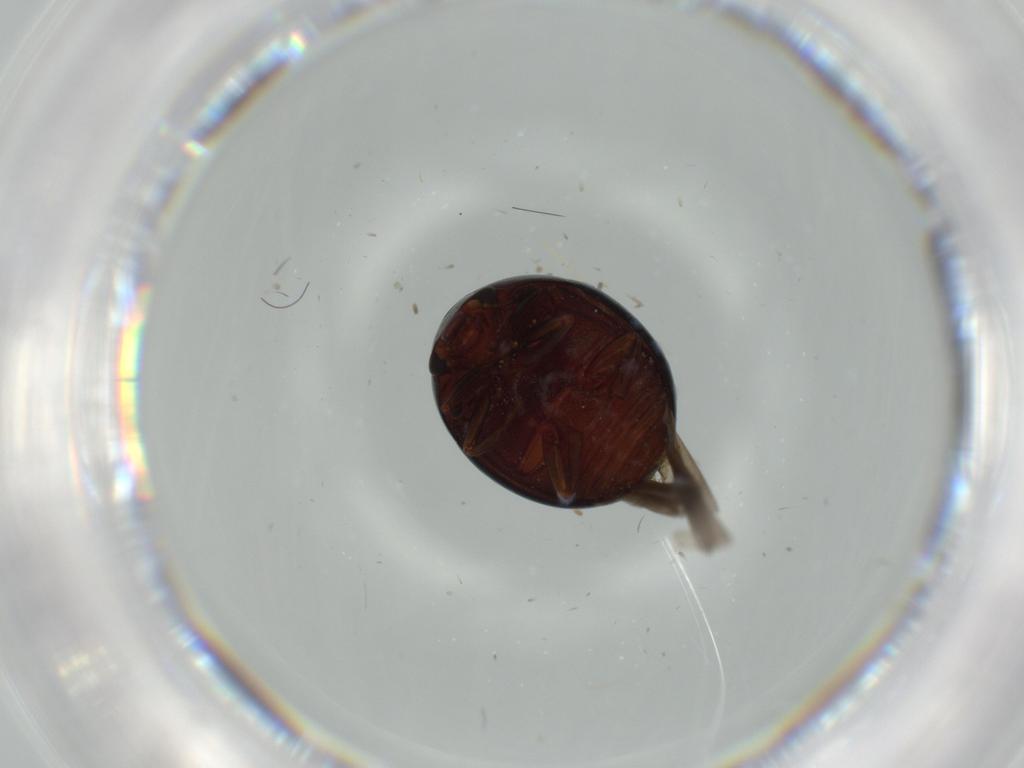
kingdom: Animalia
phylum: Arthropoda
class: Insecta
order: Coleoptera
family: Nitidulidae
